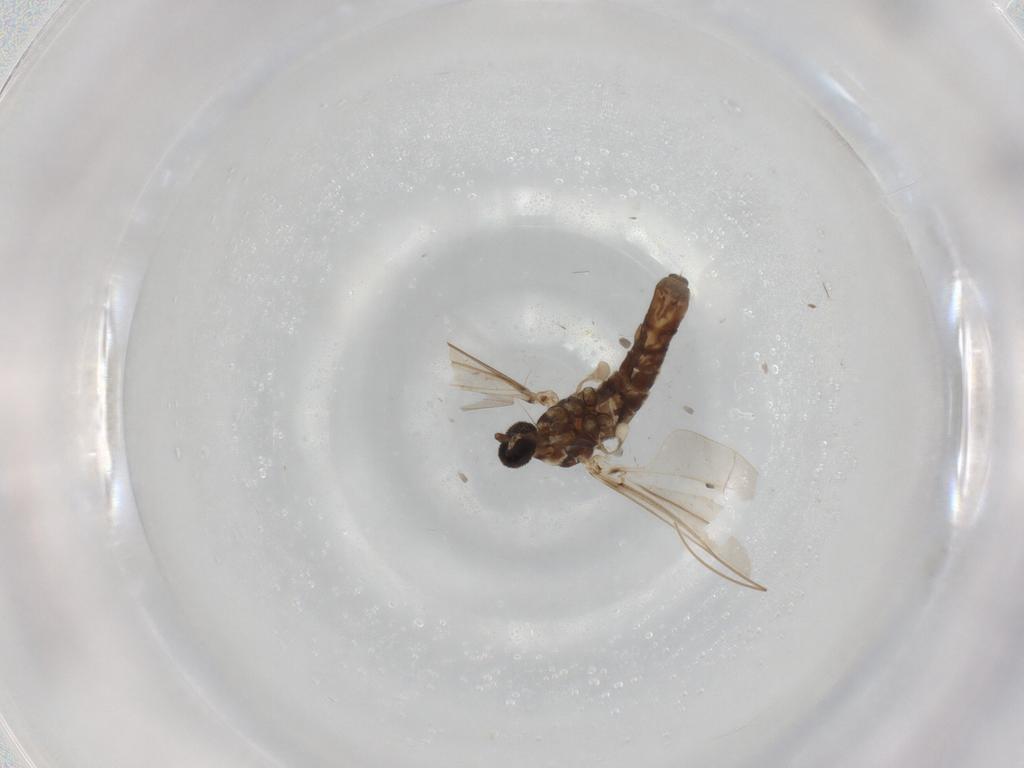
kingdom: Animalia
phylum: Arthropoda
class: Insecta
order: Diptera
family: Cecidomyiidae
